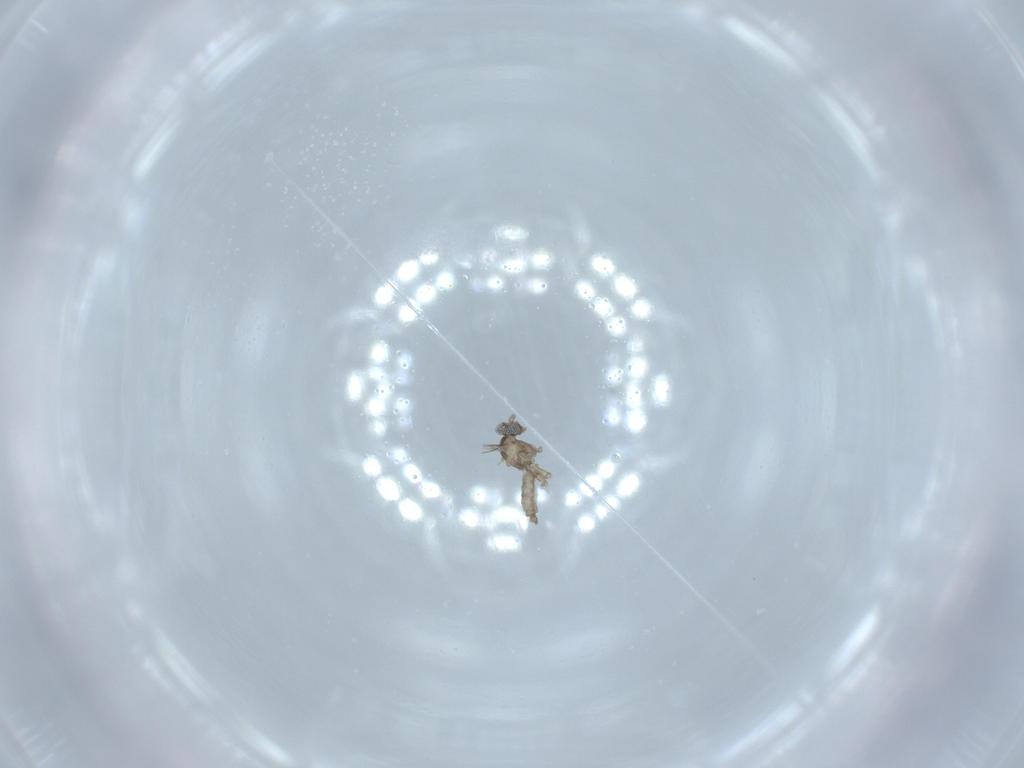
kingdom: Animalia
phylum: Arthropoda
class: Insecta
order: Diptera
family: Cecidomyiidae
